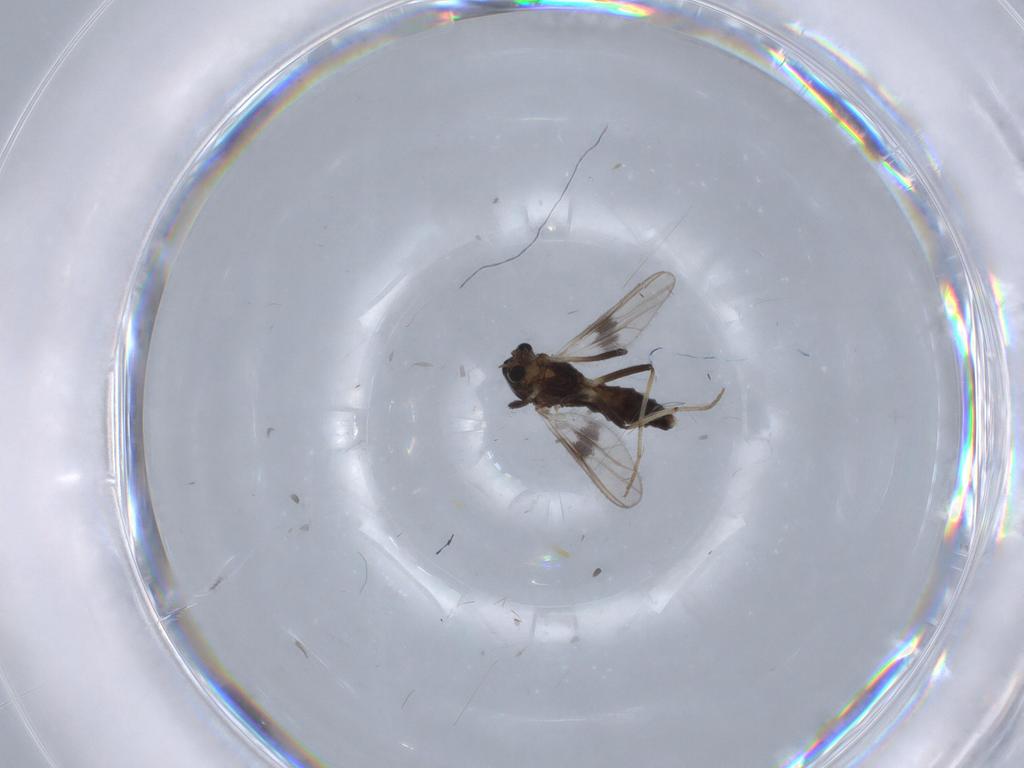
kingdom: Animalia
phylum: Arthropoda
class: Insecta
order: Diptera
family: Chironomidae
